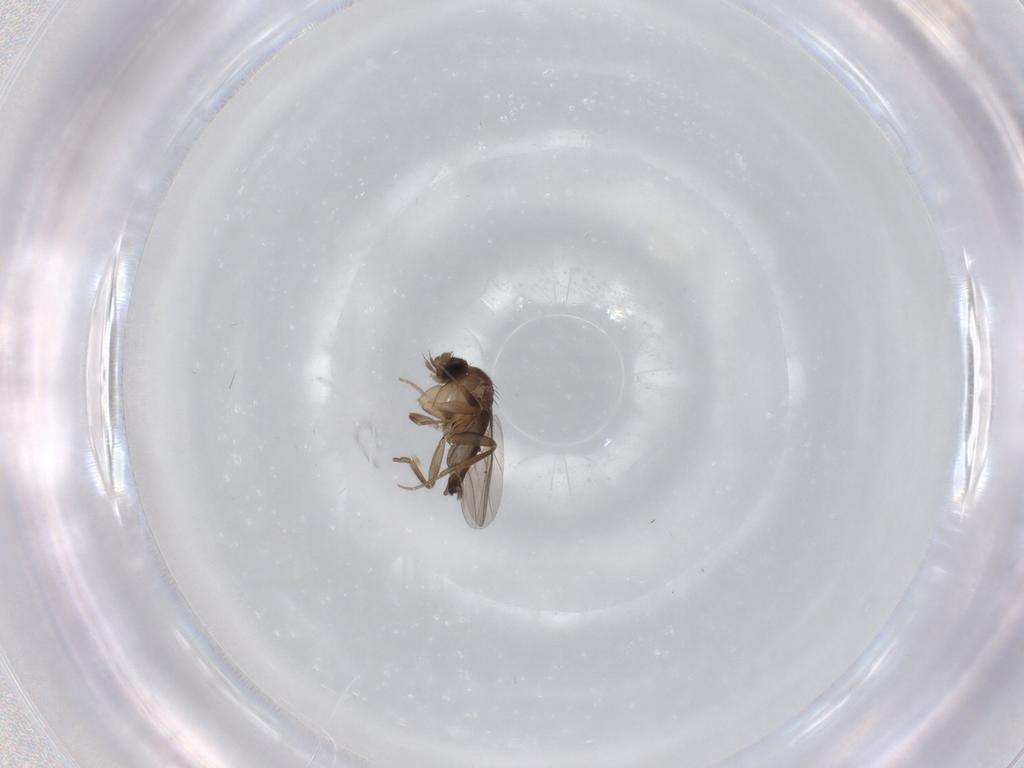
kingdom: Animalia
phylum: Arthropoda
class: Insecta
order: Diptera
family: Phoridae
